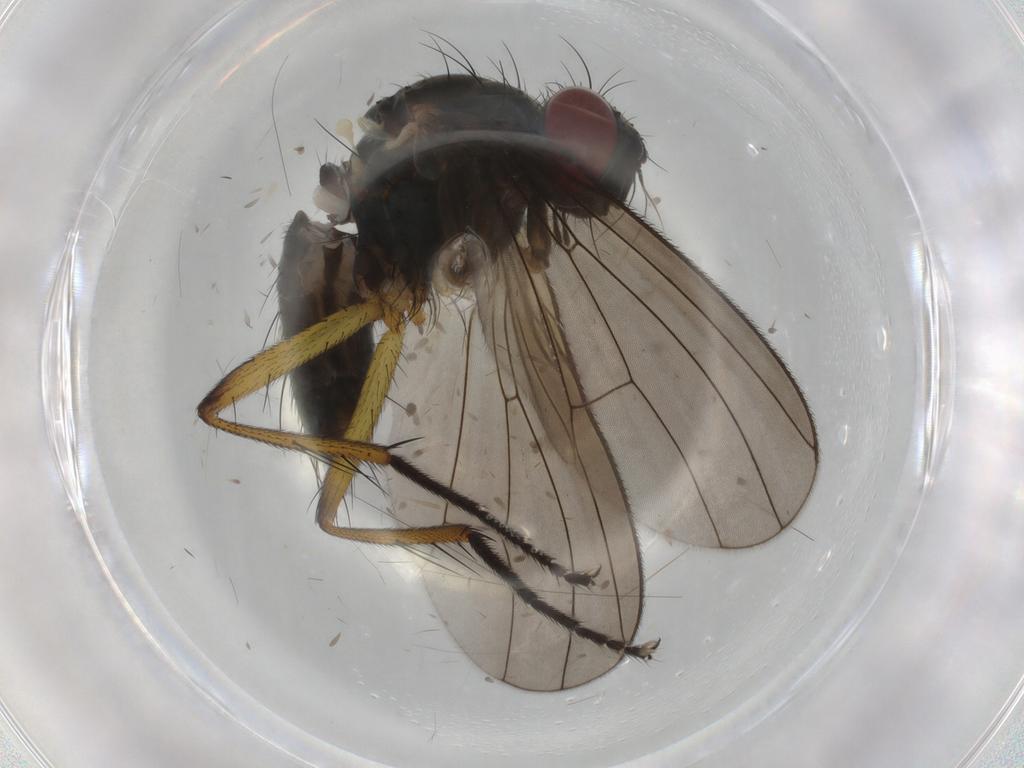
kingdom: Animalia
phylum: Arthropoda
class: Insecta
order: Diptera
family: Muscidae
